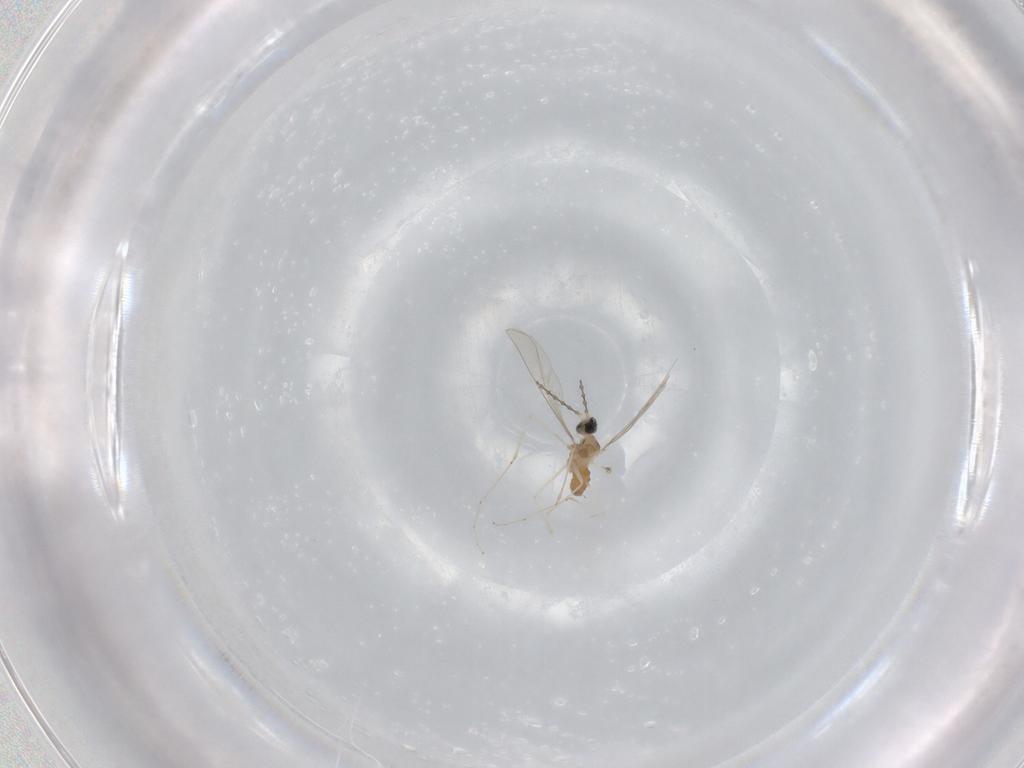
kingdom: Animalia
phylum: Arthropoda
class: Insecta
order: Diptera
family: Cecidomyiidae
